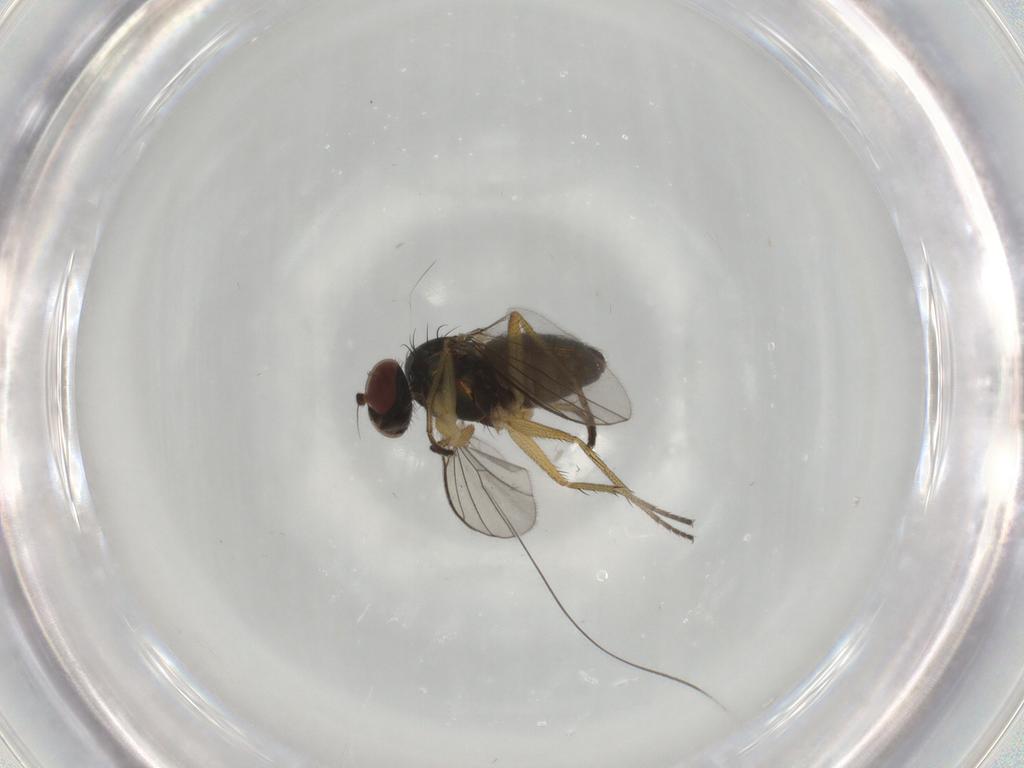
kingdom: Animalia
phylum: Arthropoda
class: Insecta
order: Diptera
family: Dolichopodidae
